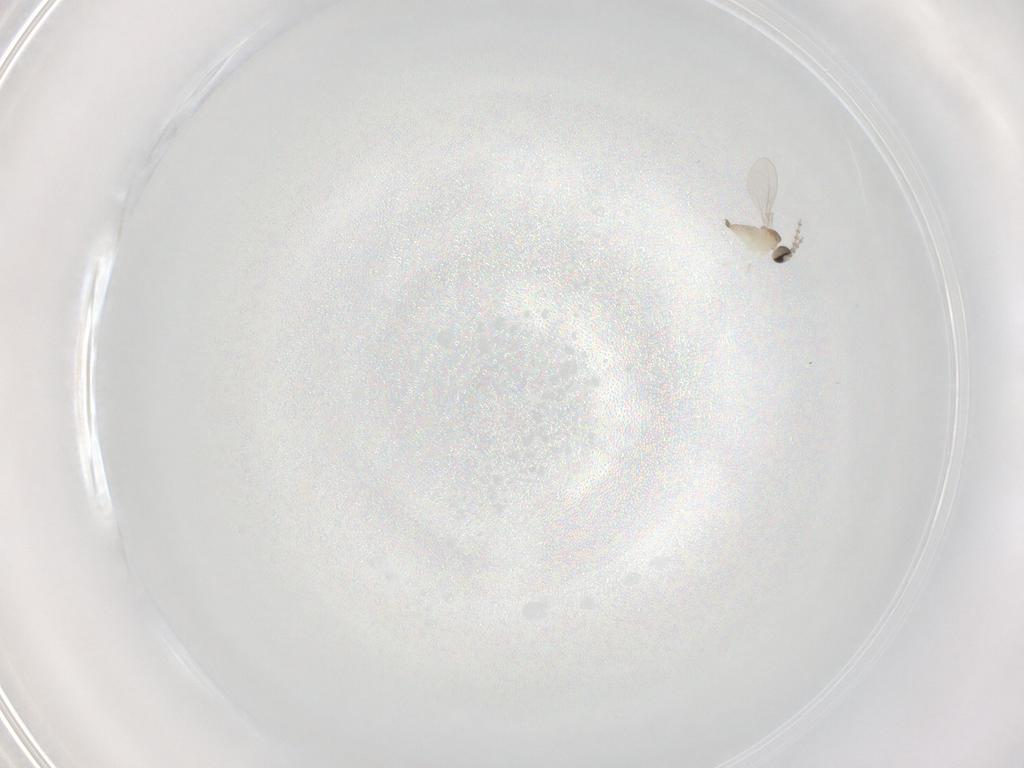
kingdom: Animalia
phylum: Arthropoda
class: Insecta
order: Diptera
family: Cecidomyiidae
